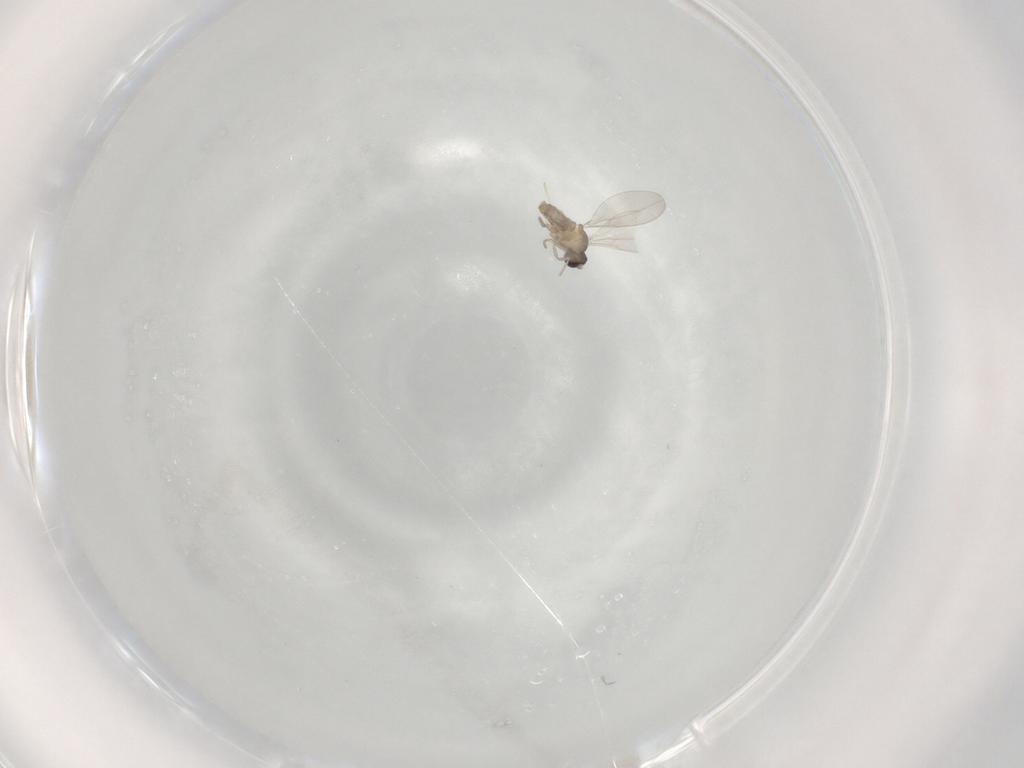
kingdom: Animalia
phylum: Arthropoda
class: Insecta
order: Diptera
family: Cecidomyiidae
